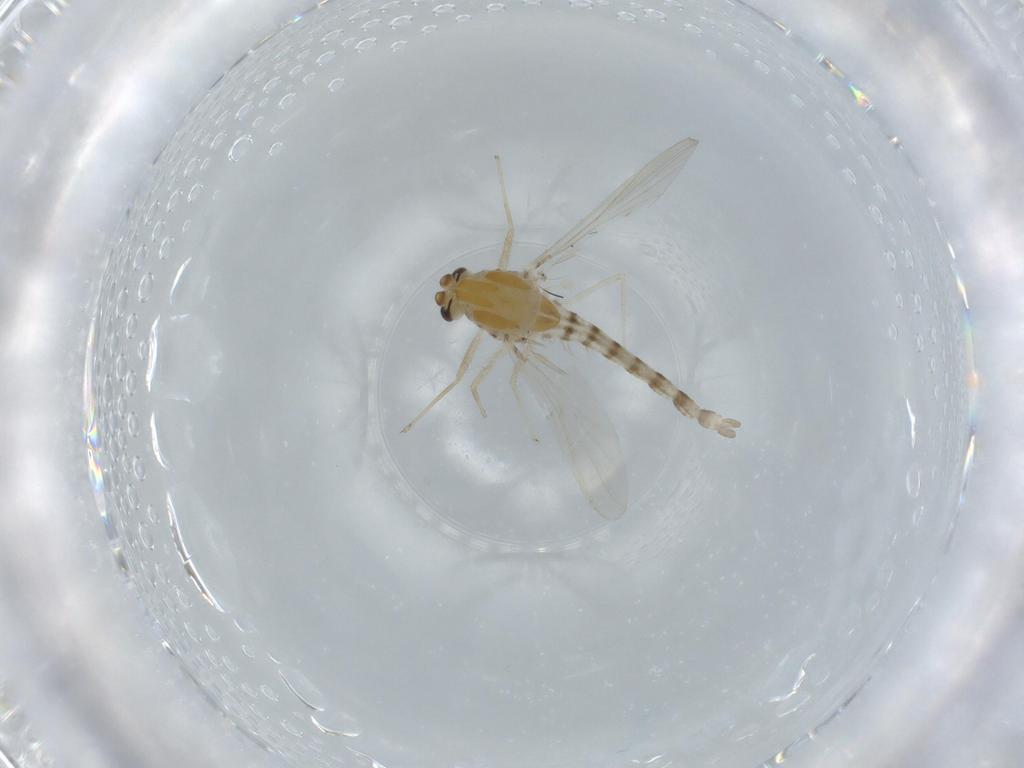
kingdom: Animalia
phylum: Arthropoda
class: Insecta
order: Diptera
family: Chironomidae
